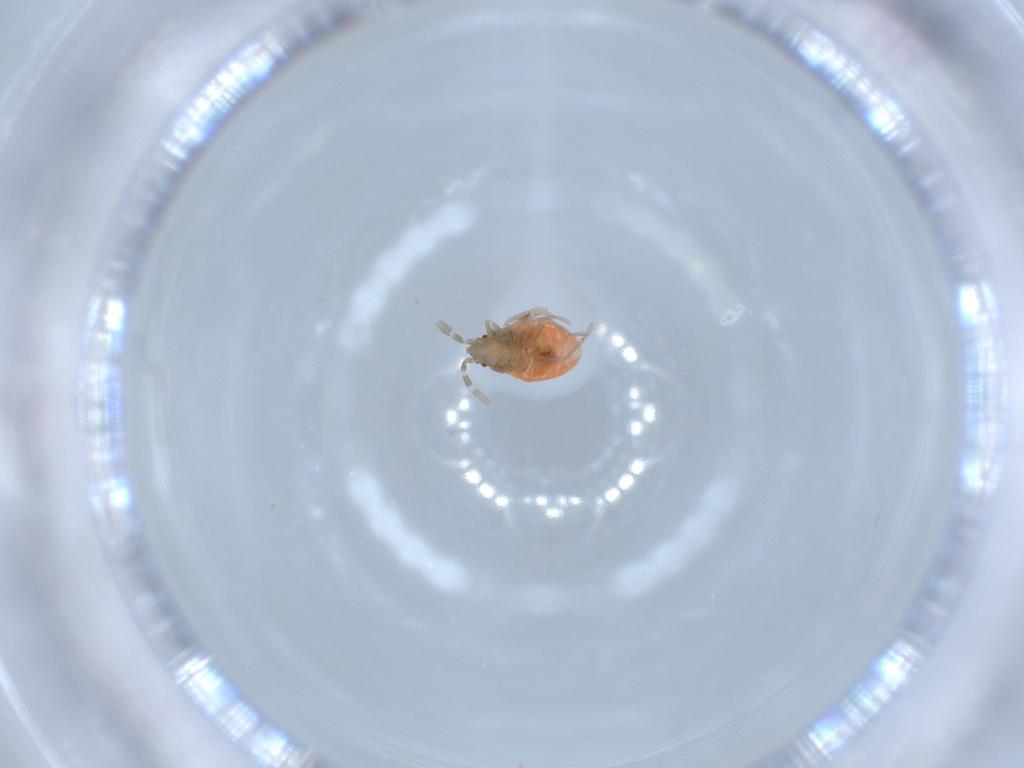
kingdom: Animalia
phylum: Arthropoda
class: Insecta
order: Hemiptera
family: Rhyparochromidae
